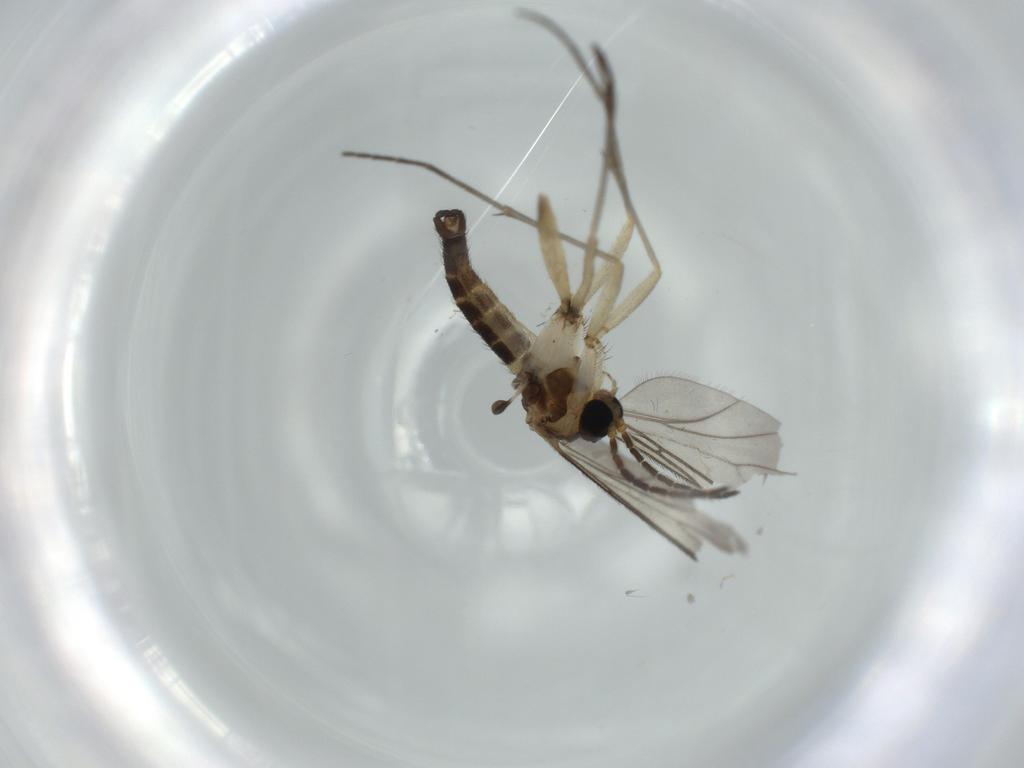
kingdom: Animalia
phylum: Arthropoda
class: Insecta
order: Diptera
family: Sciaridae
